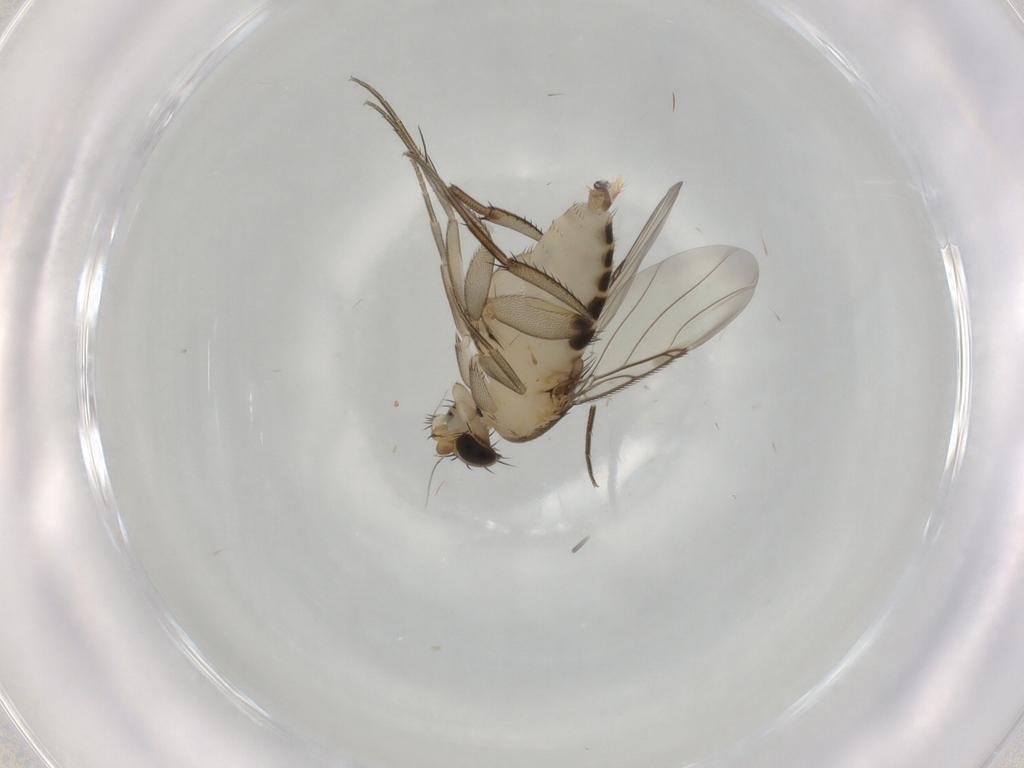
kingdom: Animalia
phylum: Arthropoda
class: Insecta
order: Diptera
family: Phoridae
